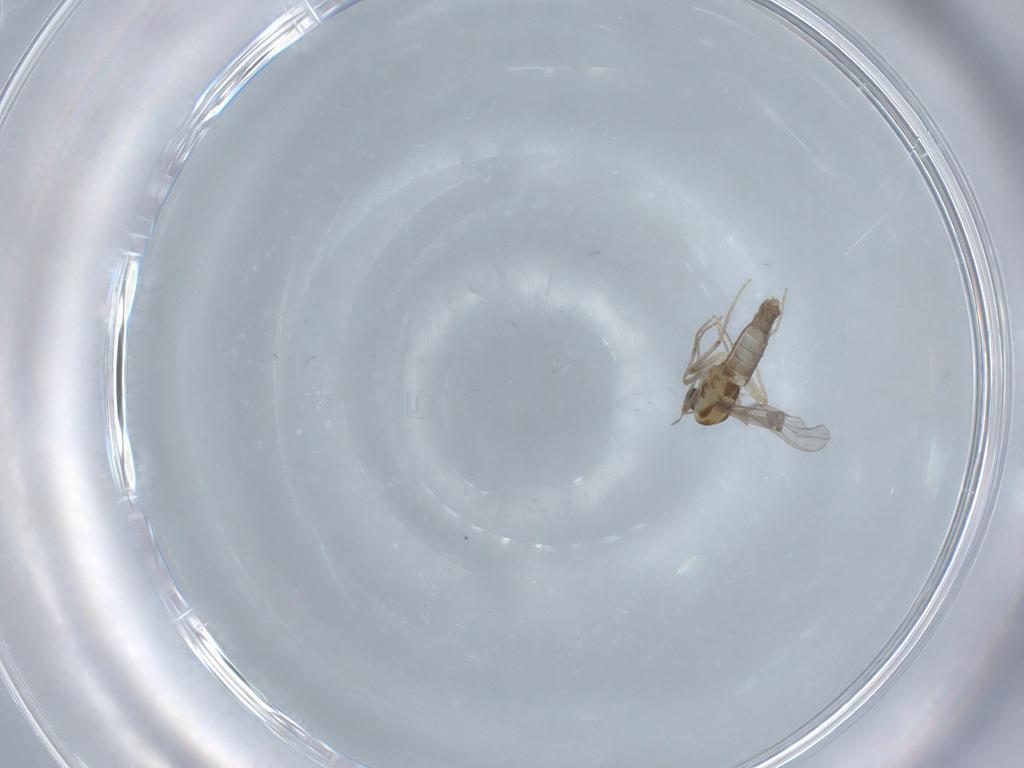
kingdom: Animalia
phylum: Arthropoda
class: Insecta
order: Diptera
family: Chironomidae
